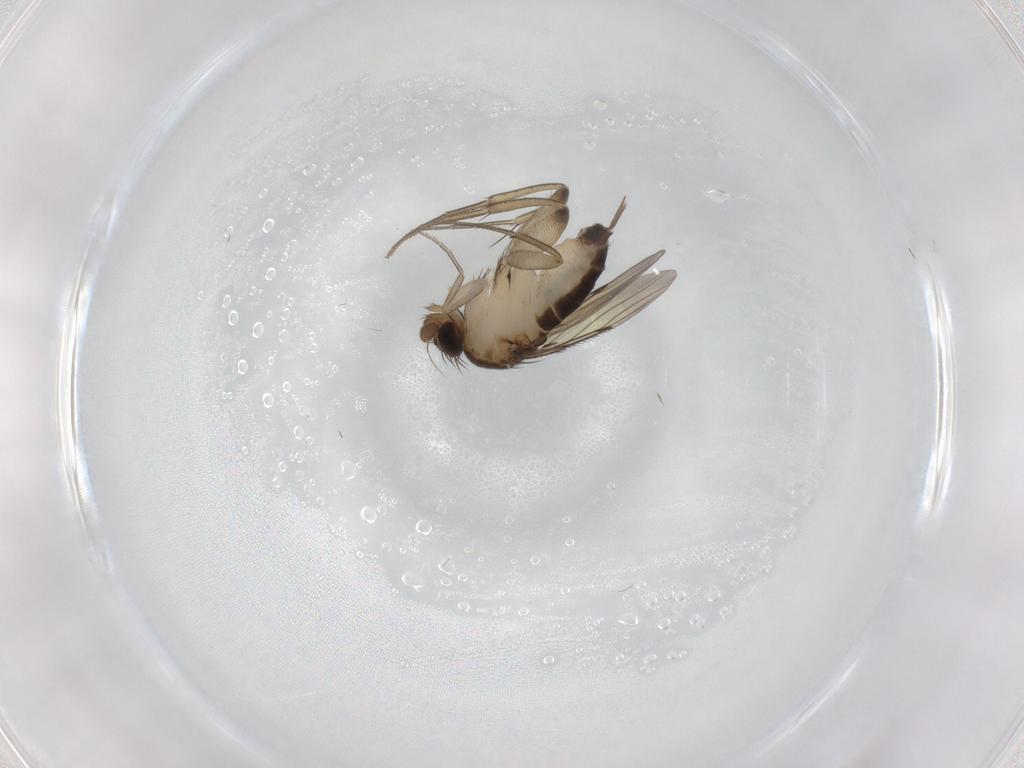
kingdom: Animalia
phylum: Arthropoda
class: Insecta
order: Diptera
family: Phoridae
